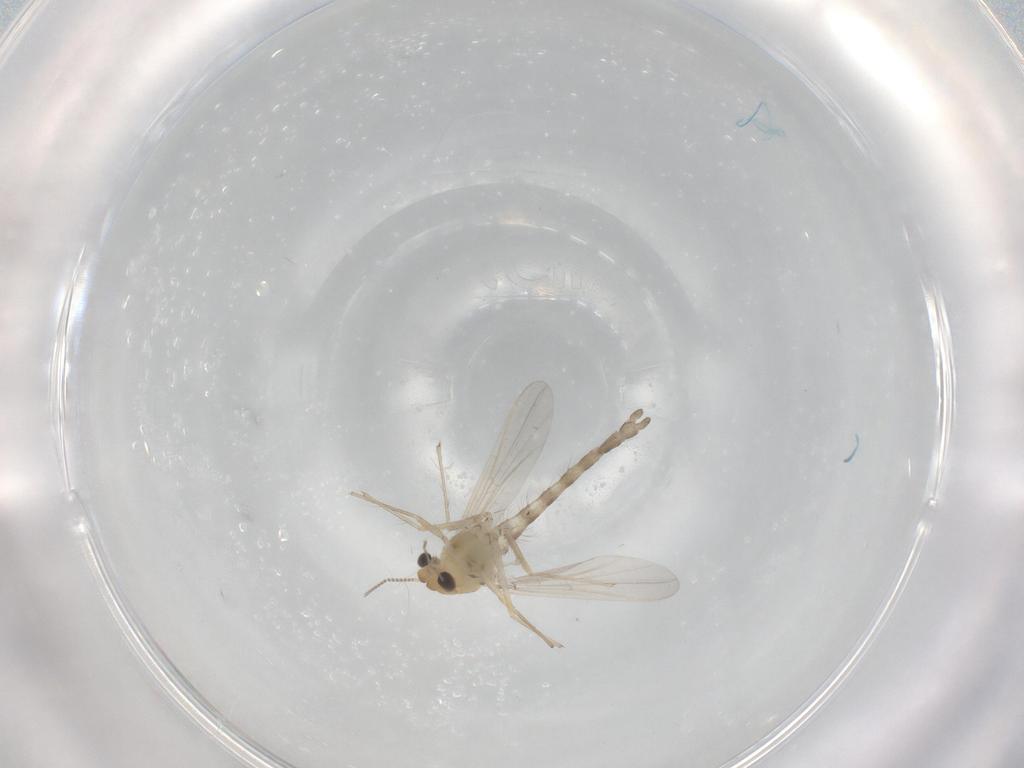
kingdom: Animalia
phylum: Arthropoda
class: Insecta
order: Diptera
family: Chironomidae
